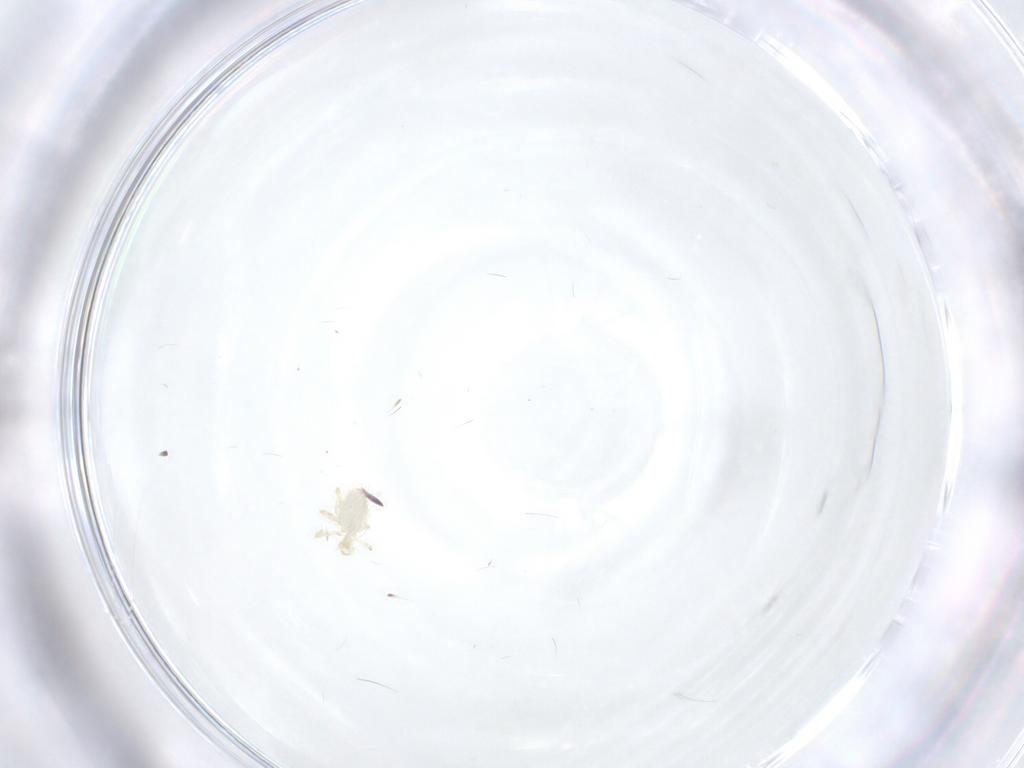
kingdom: Animalia
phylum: Arthropoda
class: Arachnida
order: Trombidiformes
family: Erythraeidae
